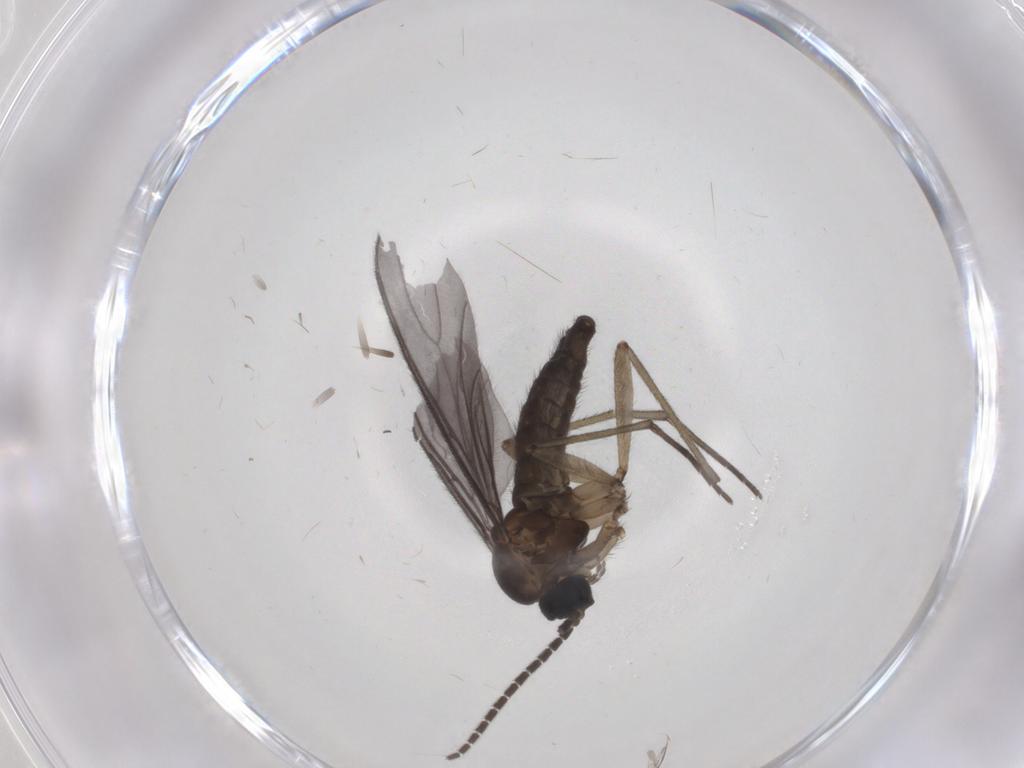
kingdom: Animalia
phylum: Arthropoda
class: Insecta
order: Diptera
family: Sciaridae
